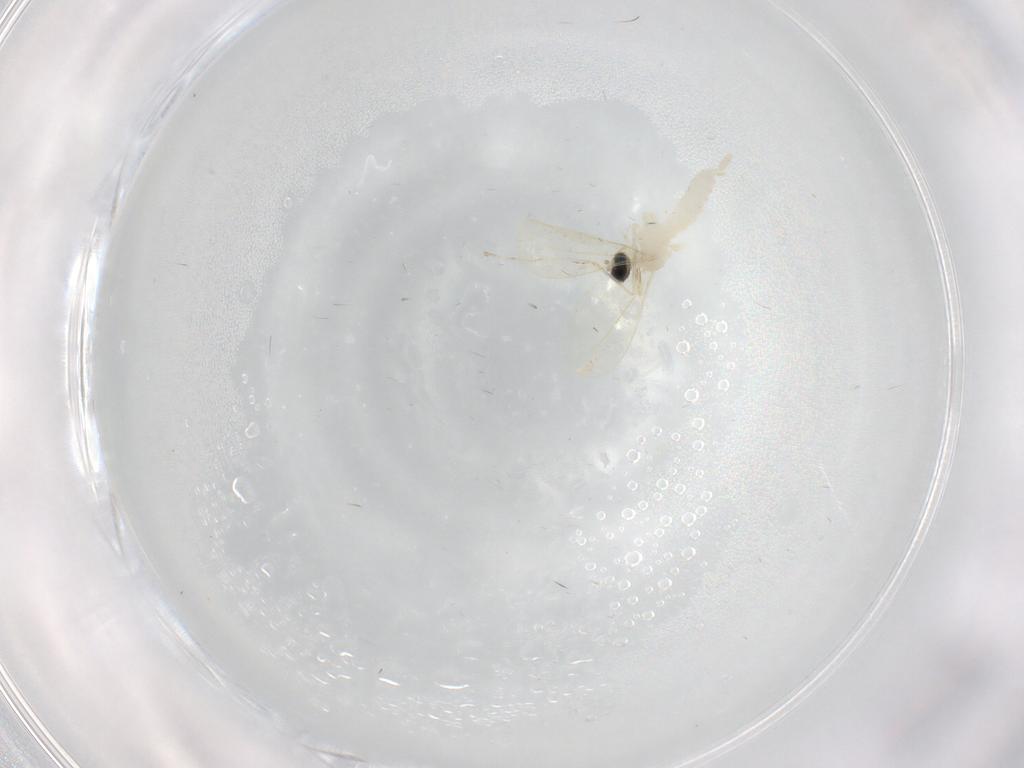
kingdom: Animalia
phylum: Arthropoda
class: Insecta
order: Diptera
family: Cecidomyiidae
